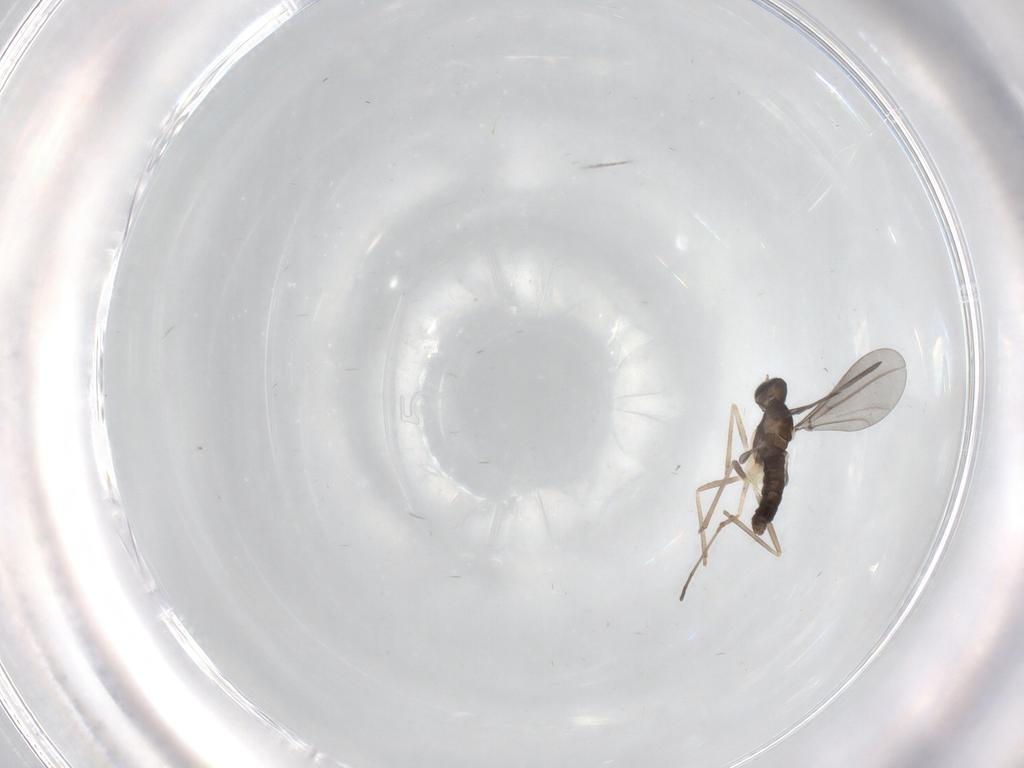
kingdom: Animalia
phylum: Arthropoda
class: Insecta
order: Diptera
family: Cecidomyiidae
